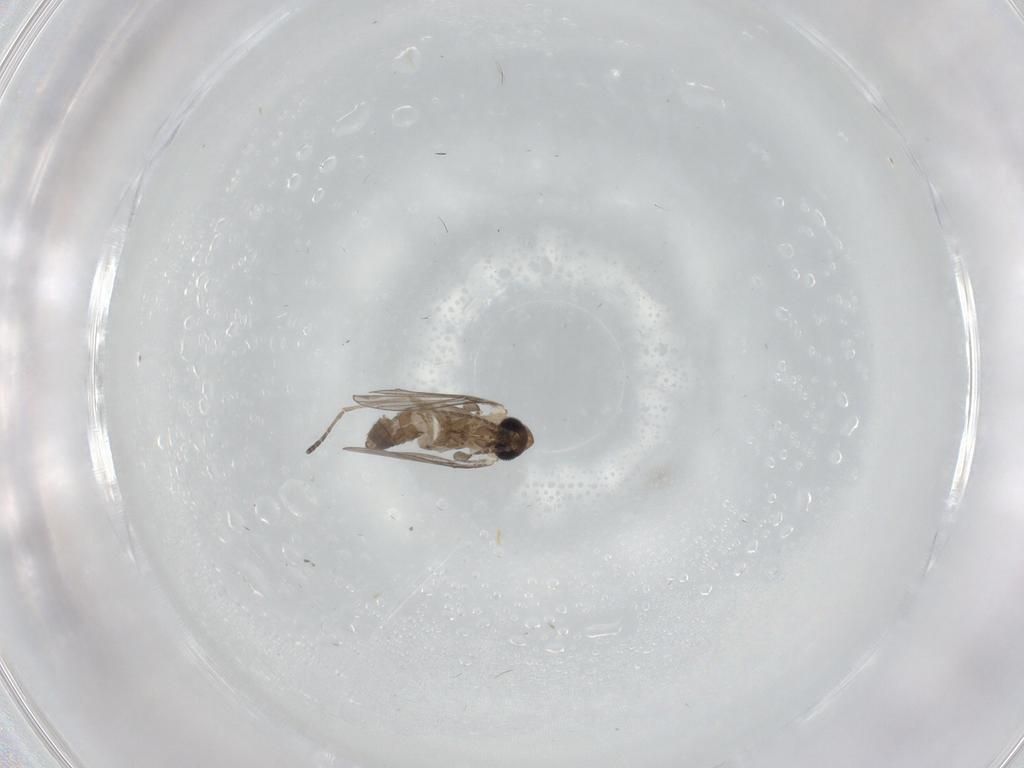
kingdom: Animalia
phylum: Arthropoda
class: Insecta
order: Diptera
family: Psychodidae
